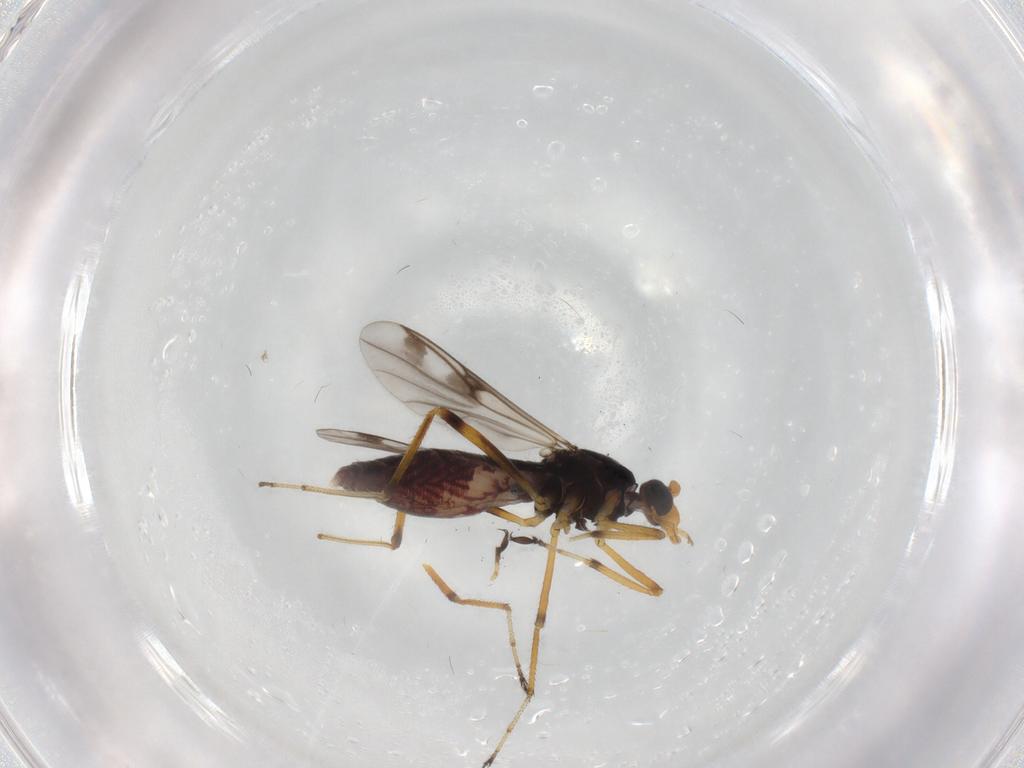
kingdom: Animalia
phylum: Arthropoda
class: Insecta
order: Diptera
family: Ceratopogonidae
